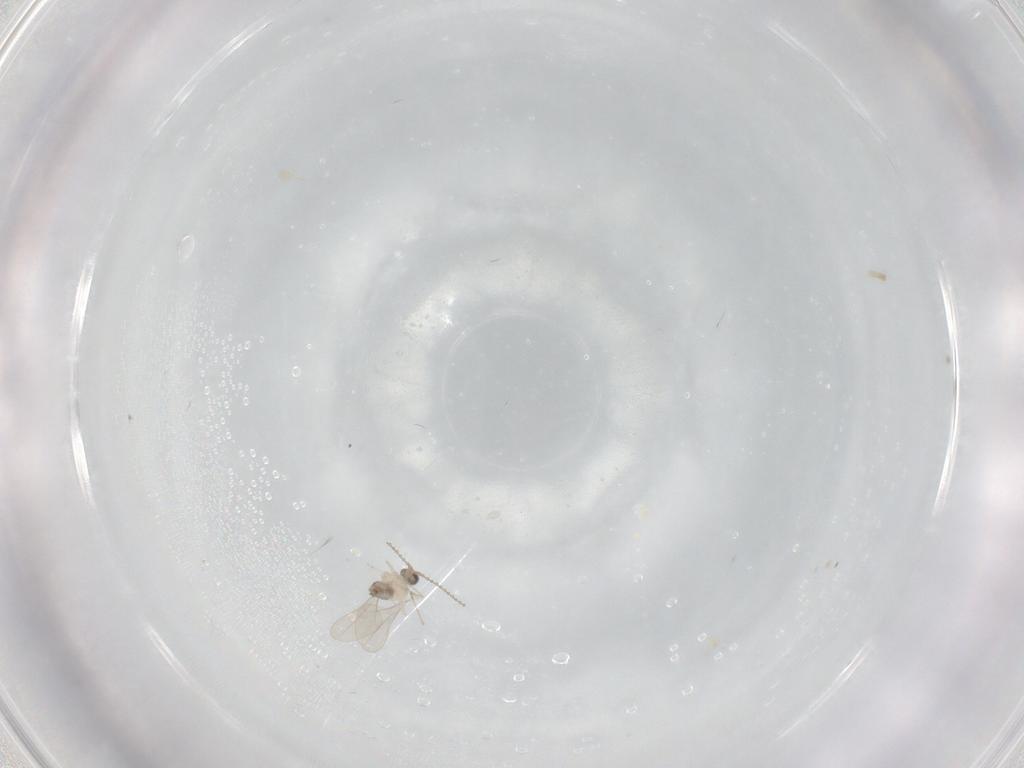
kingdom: Animalia
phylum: Arthropoda
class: Insecta
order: Diptera
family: Cecidomyiidae
